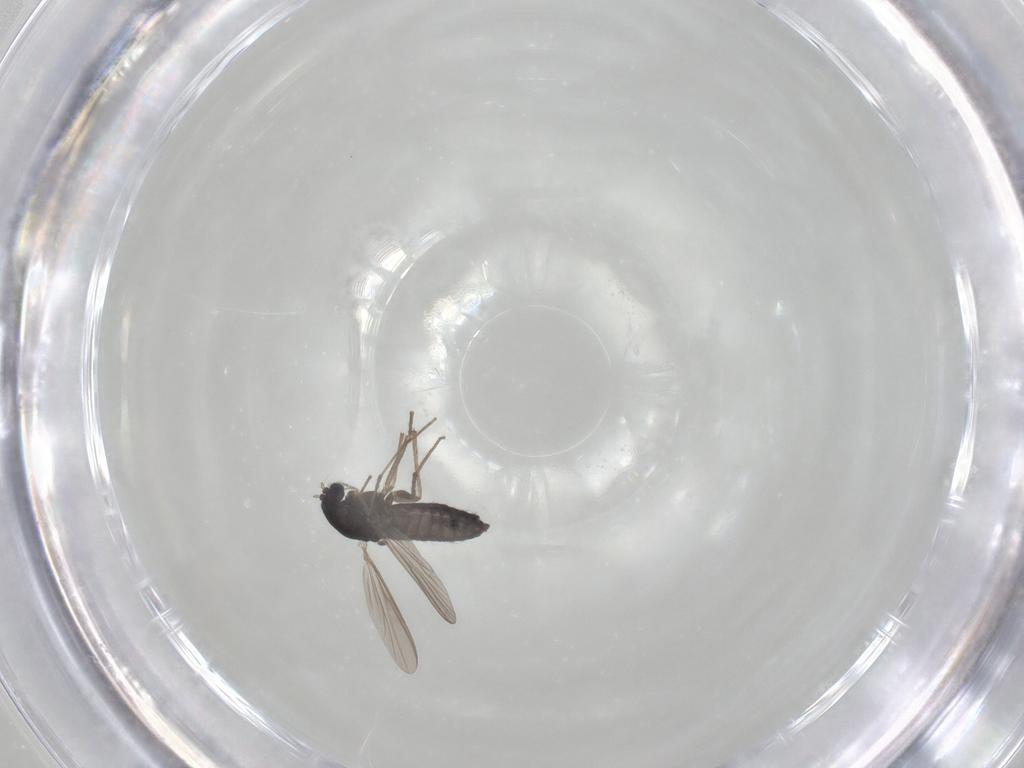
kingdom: Animalia
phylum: Arthropoda
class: Insecta
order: Diptera
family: Chironomidae
